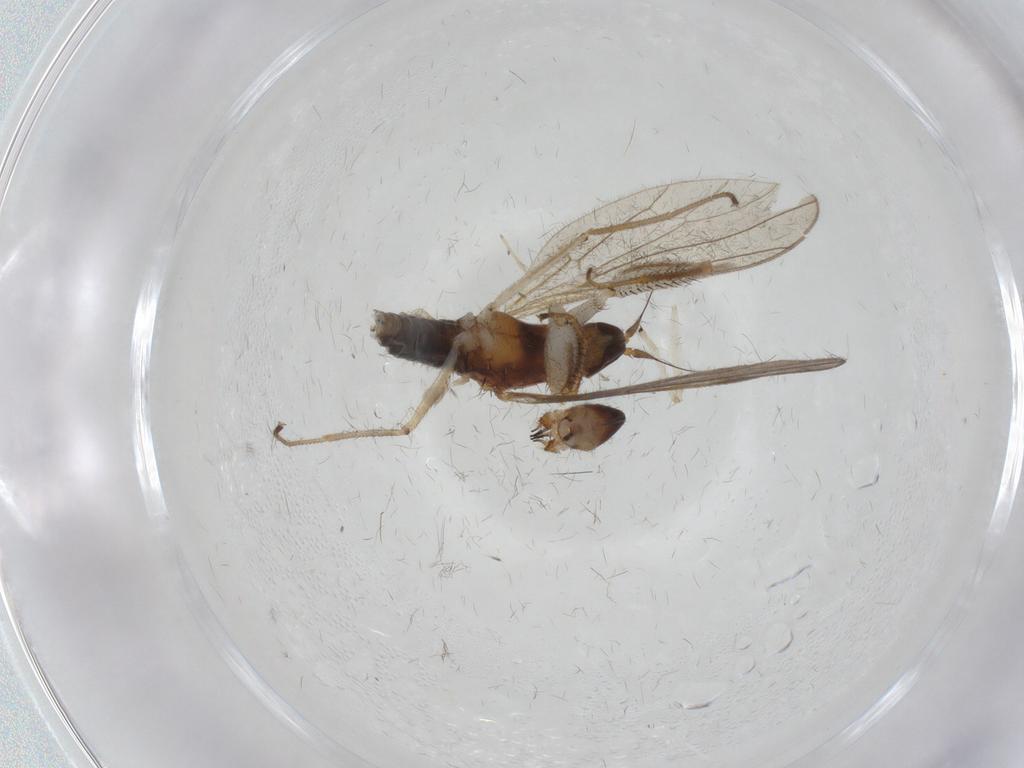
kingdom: Animalia
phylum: Arthropoda
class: Insecta
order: Diptera
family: Empididae
